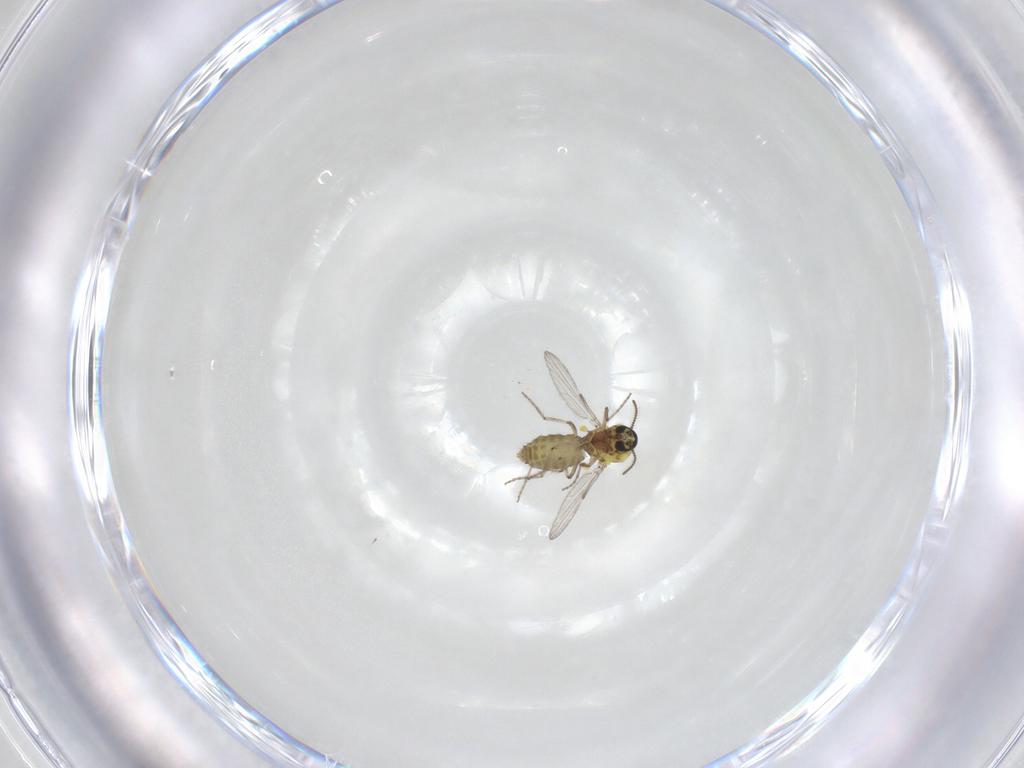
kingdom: Animalia
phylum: Arthropoda
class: Insecta
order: Diptera
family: Ceratopogonidae
